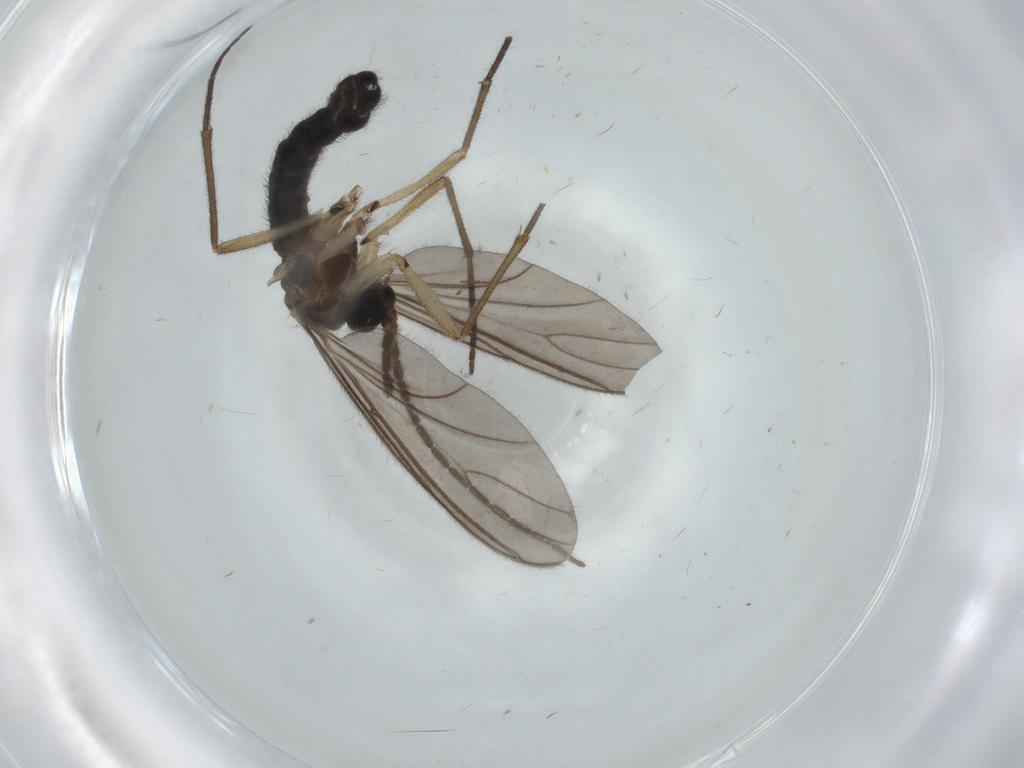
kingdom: Animalia
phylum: Arthropoda
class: Insecta
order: Diptera
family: Sciaridae
